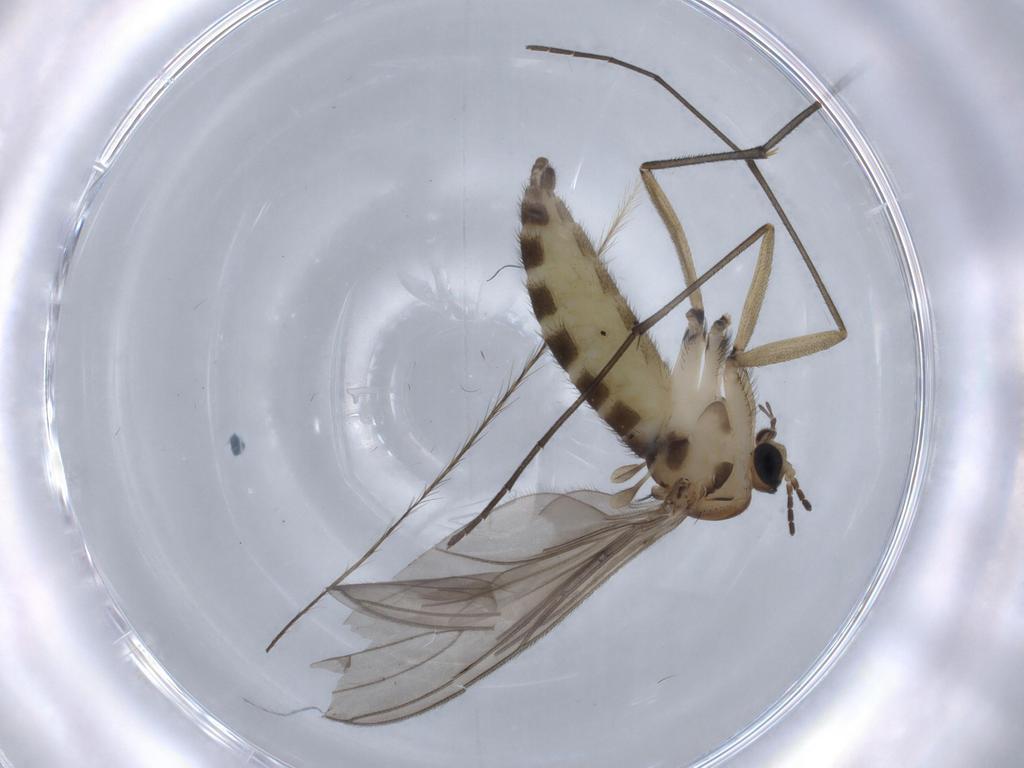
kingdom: Animalia
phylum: Arthropoda
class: Insecta
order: Diptera
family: Sciaridae
